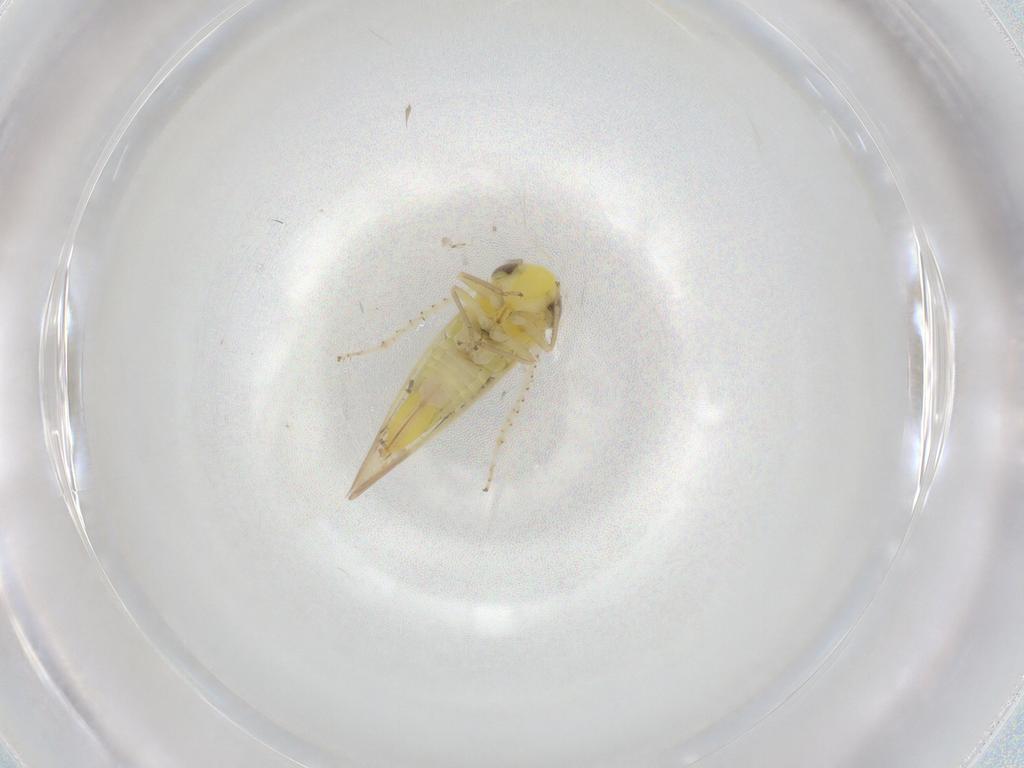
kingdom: Animalia
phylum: Arthropoda
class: Insecta
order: Hemiptera
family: Cicadellidae
